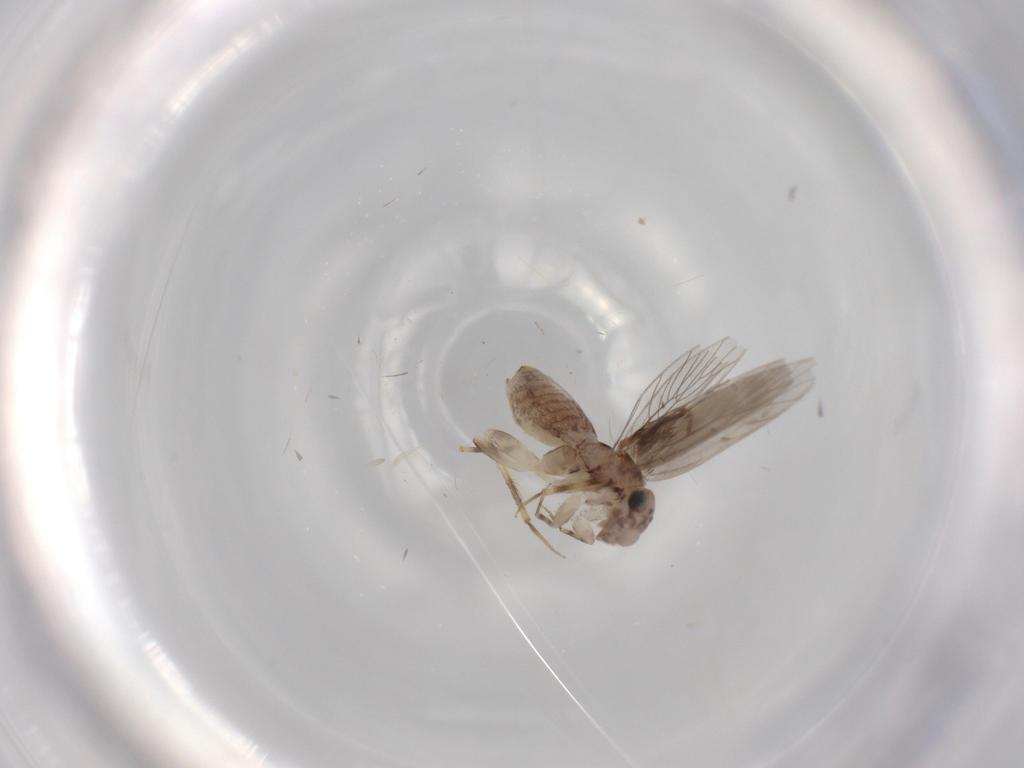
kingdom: Animalia
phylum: Arthropoda
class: Insecta
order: Psocodea
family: Lepidopsocidae
